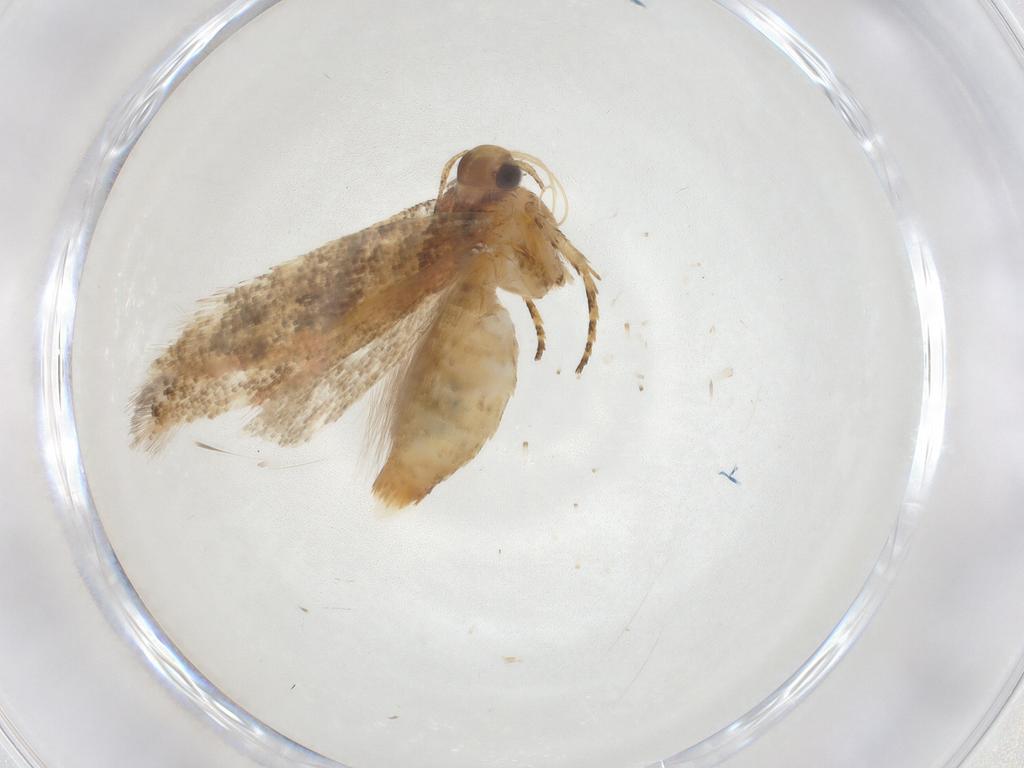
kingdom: Animalia
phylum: Arthropoda
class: Insecta
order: Lepidoptera
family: Gelechiidae
